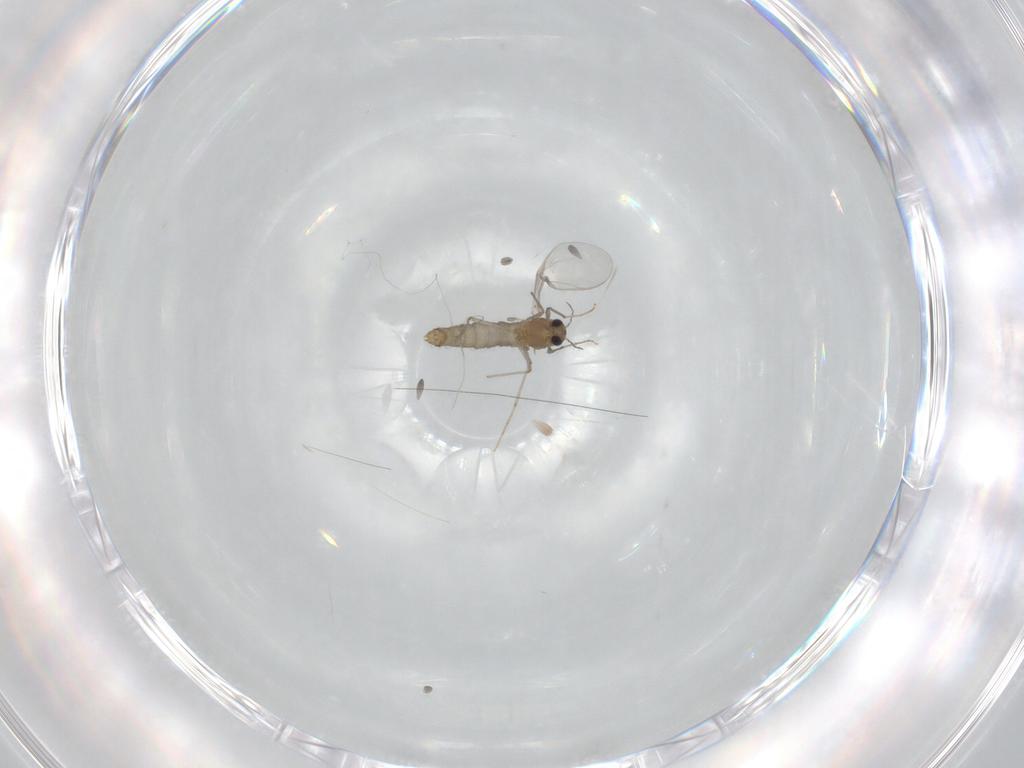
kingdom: Animalia
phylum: Arthropoda
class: Insecta
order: Diptera
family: Chironomidae
